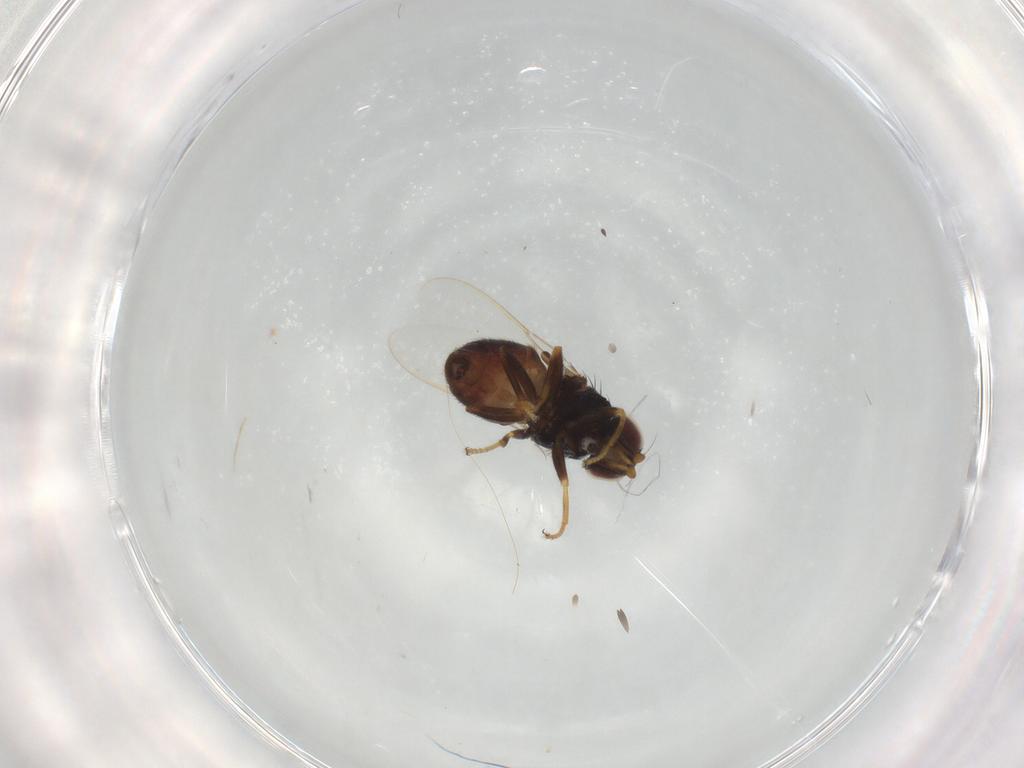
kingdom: Animalia
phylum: Arthropoda
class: Insecta
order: Diptera
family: Chloropidae
